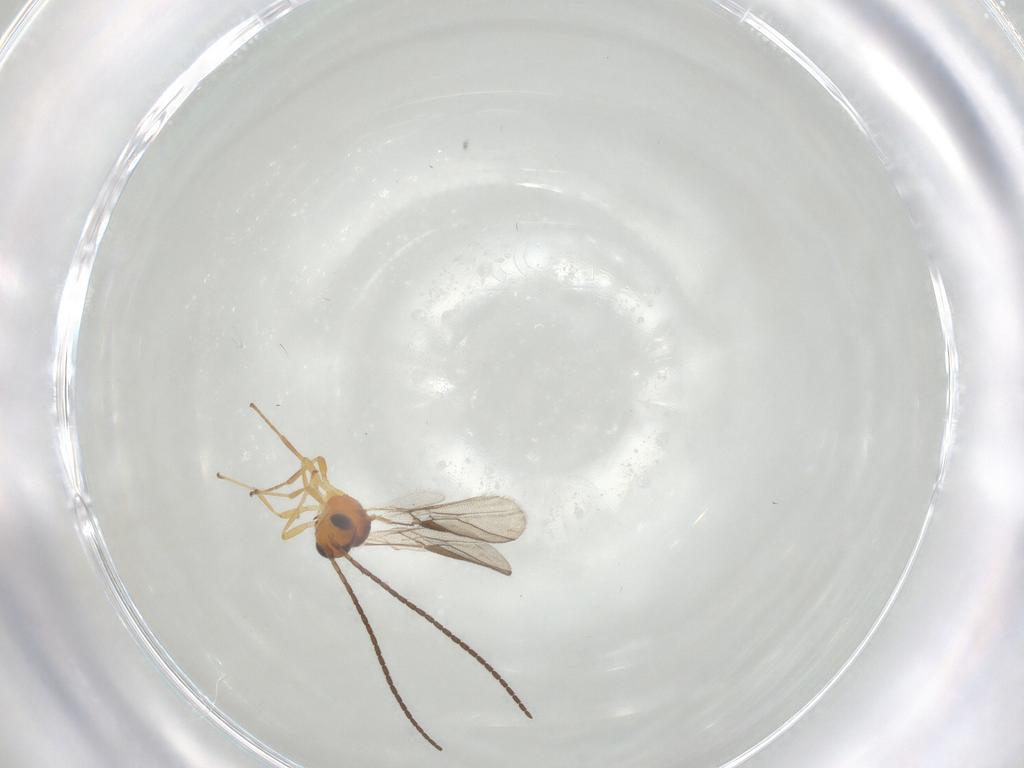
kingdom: Animalia
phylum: Arthropoda
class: Insecta
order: Hymenoptera
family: Braconidae
